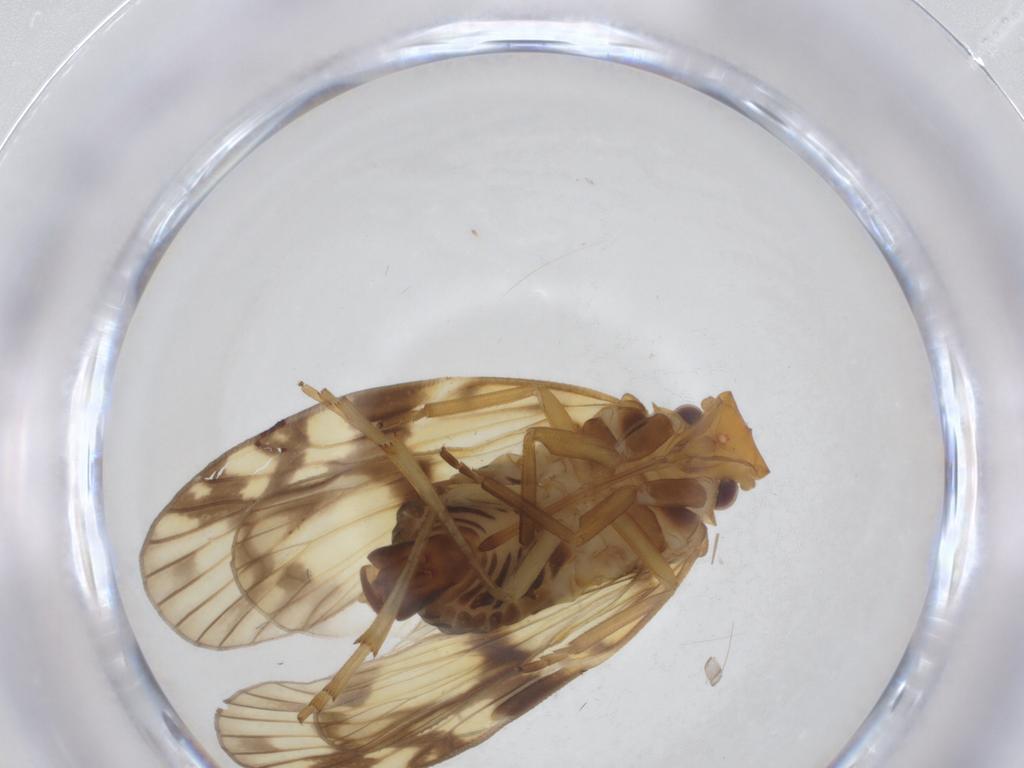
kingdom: Animalia
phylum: Arthropoda
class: Insecta
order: Hemiptera
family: Cixiidae
